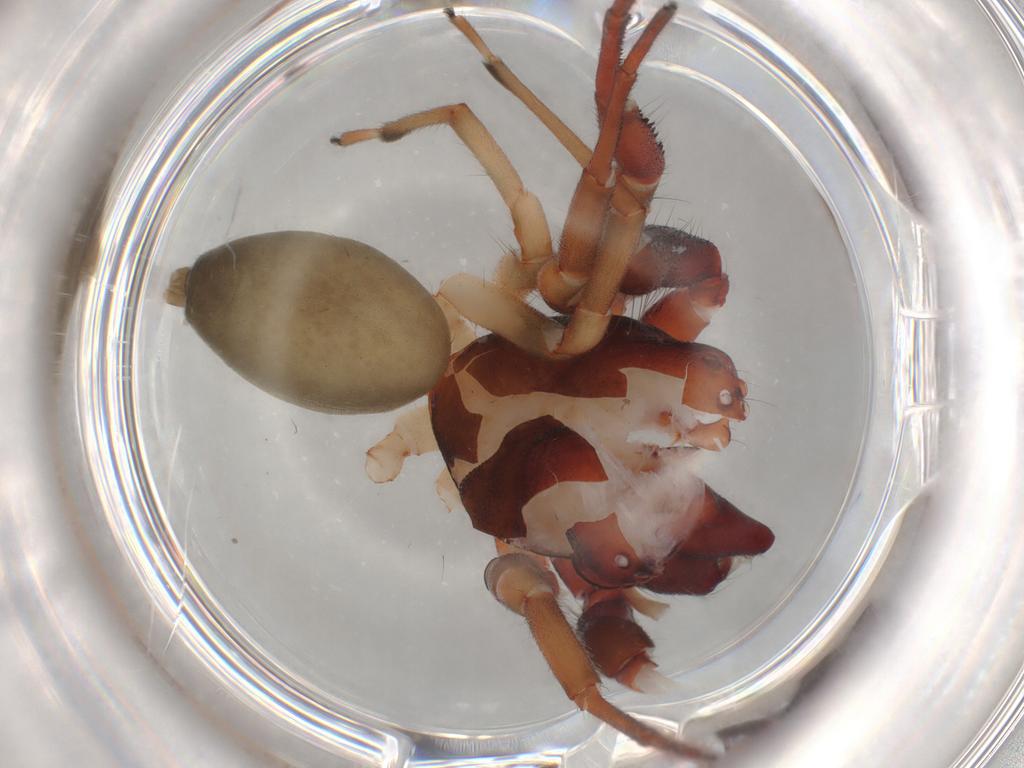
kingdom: Animalia
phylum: Arthropoda
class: Arachnida
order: Araneae
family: Trachelidae
